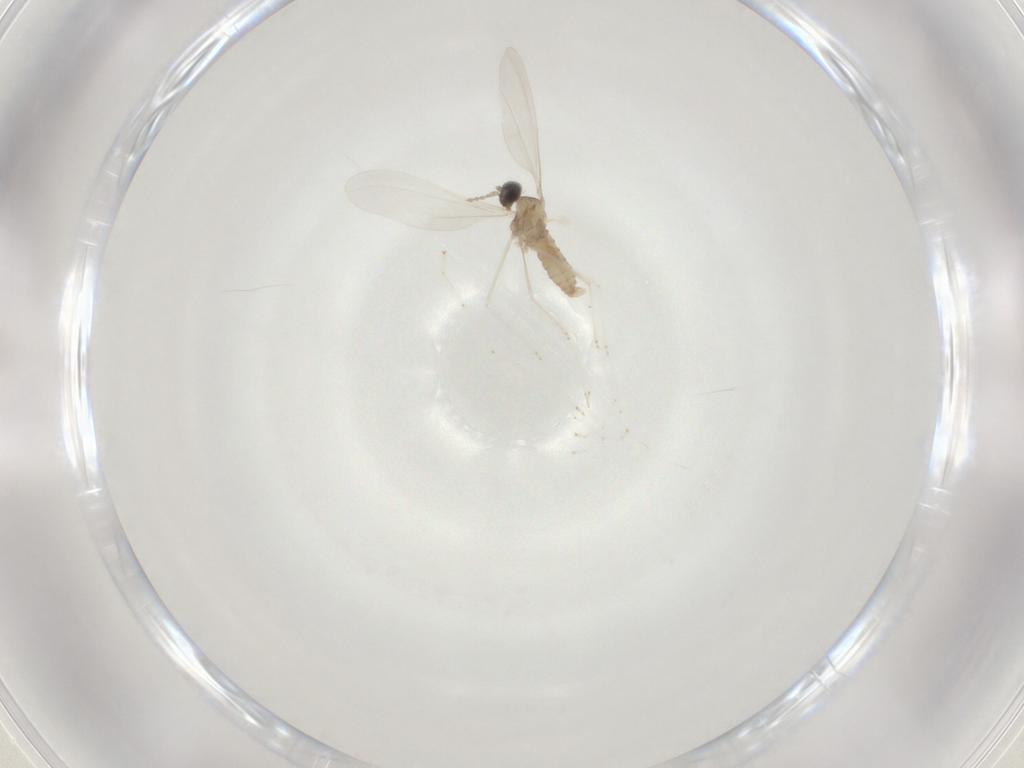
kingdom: Animalia
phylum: Arthropoda
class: Insecta
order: Diptera
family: Cecidomyiidae
